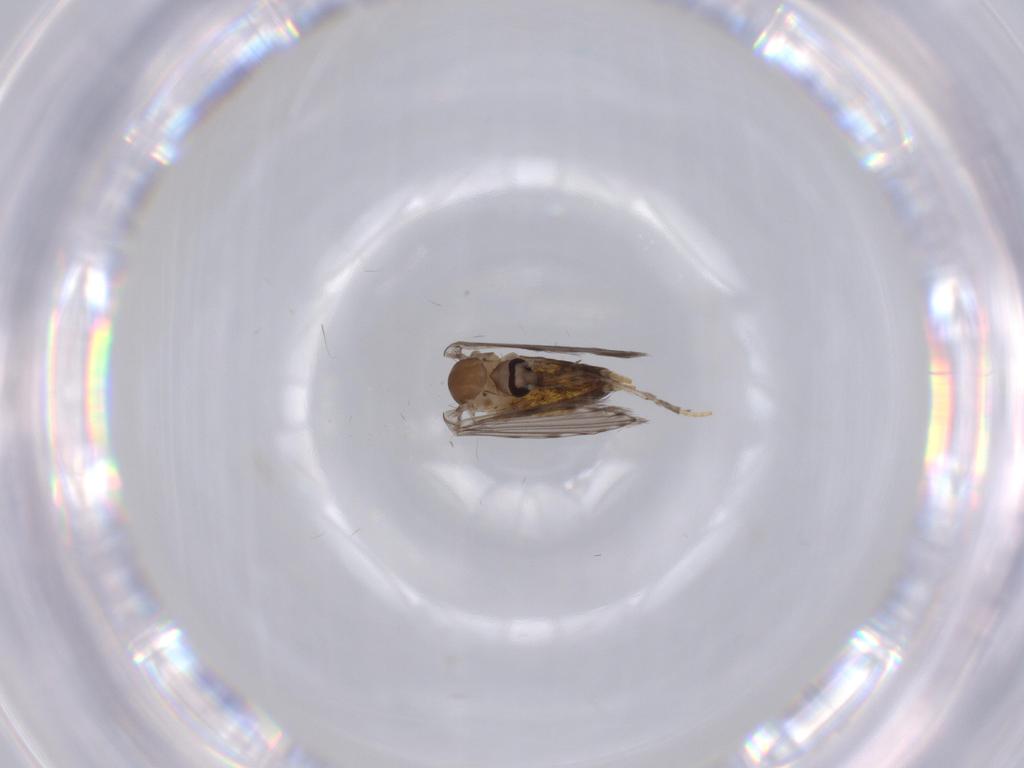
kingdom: Animalia
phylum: Arthropoda
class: Insecta
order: Diptera
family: Psychodidae
